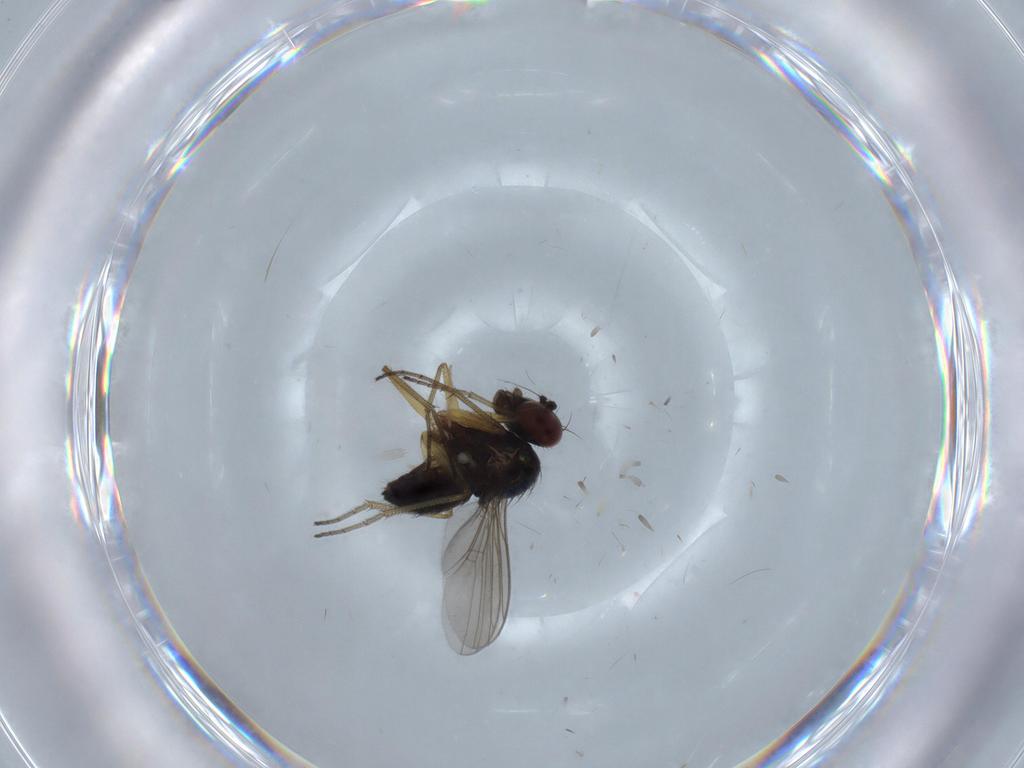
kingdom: Animalia
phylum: Arthropoda
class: Insecta
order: Diptera
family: Dolichopodidae
